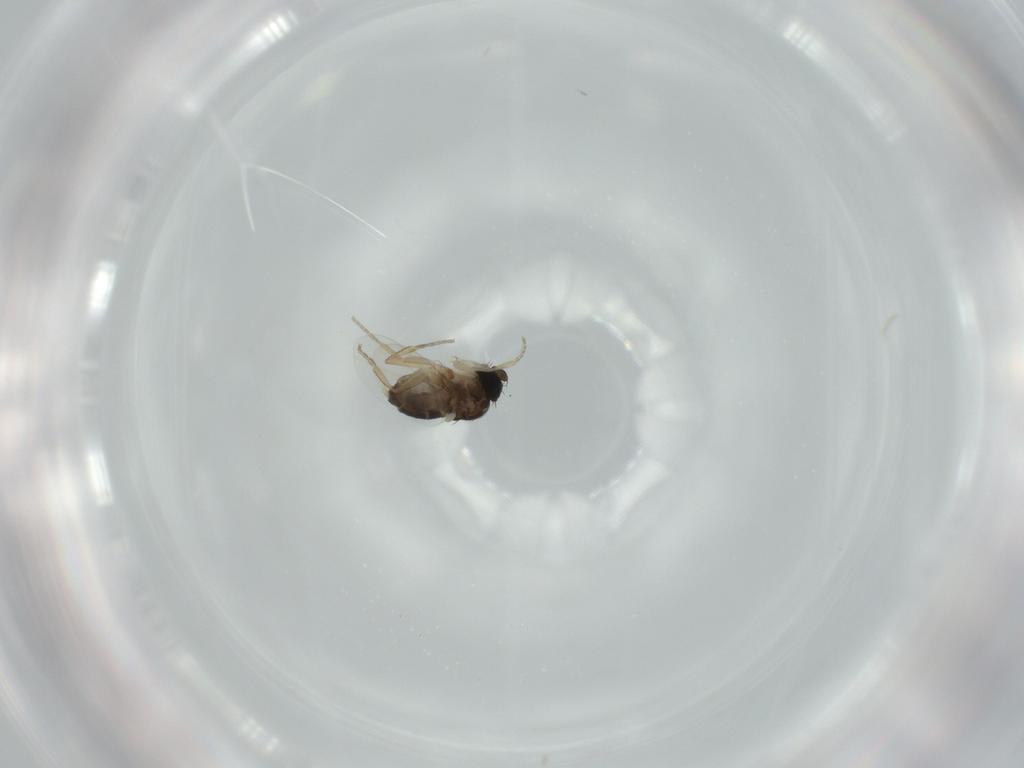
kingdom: Animalia
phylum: Arthropoda
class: Insecta
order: Diptera
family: Phoridae
